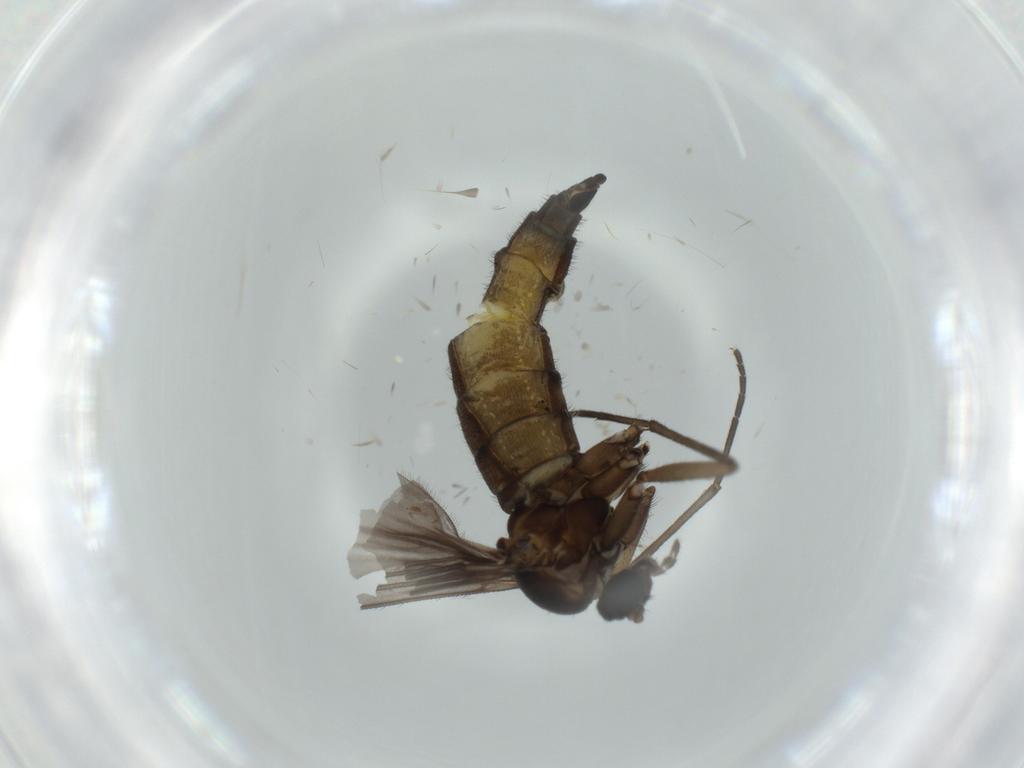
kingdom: Animalia
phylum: Arthropoda
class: Insecta
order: Diptera
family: Sciaridae
